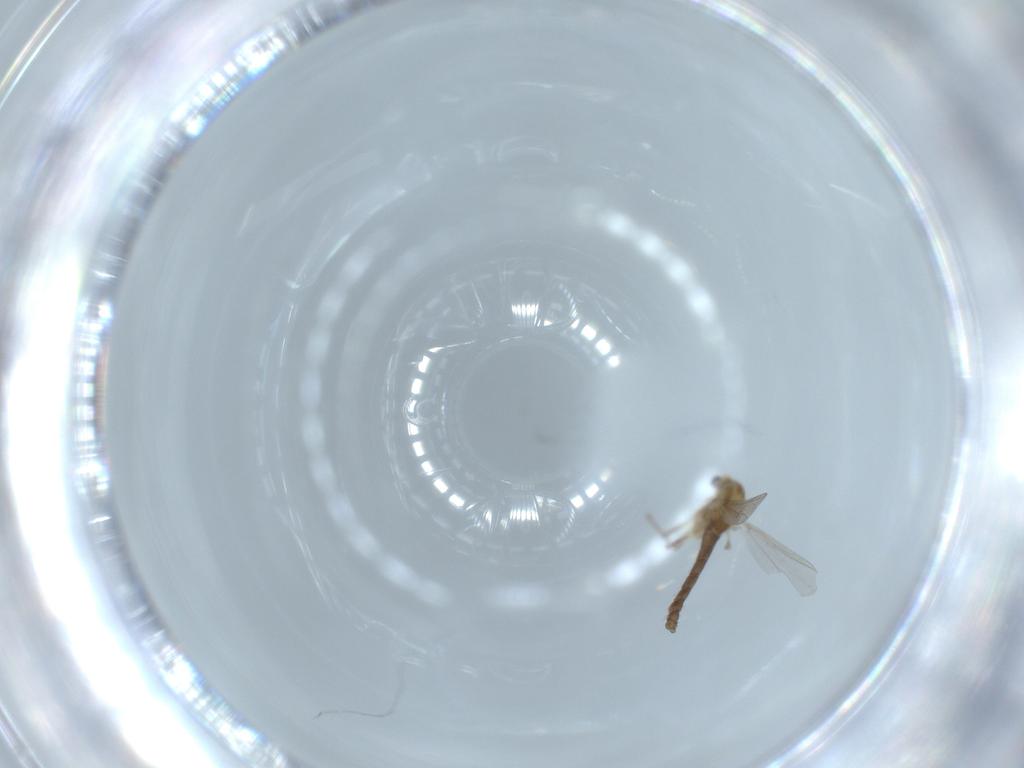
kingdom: Animalia
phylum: Arthropoda
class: Insecta
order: Diptera
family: Chironomidae
